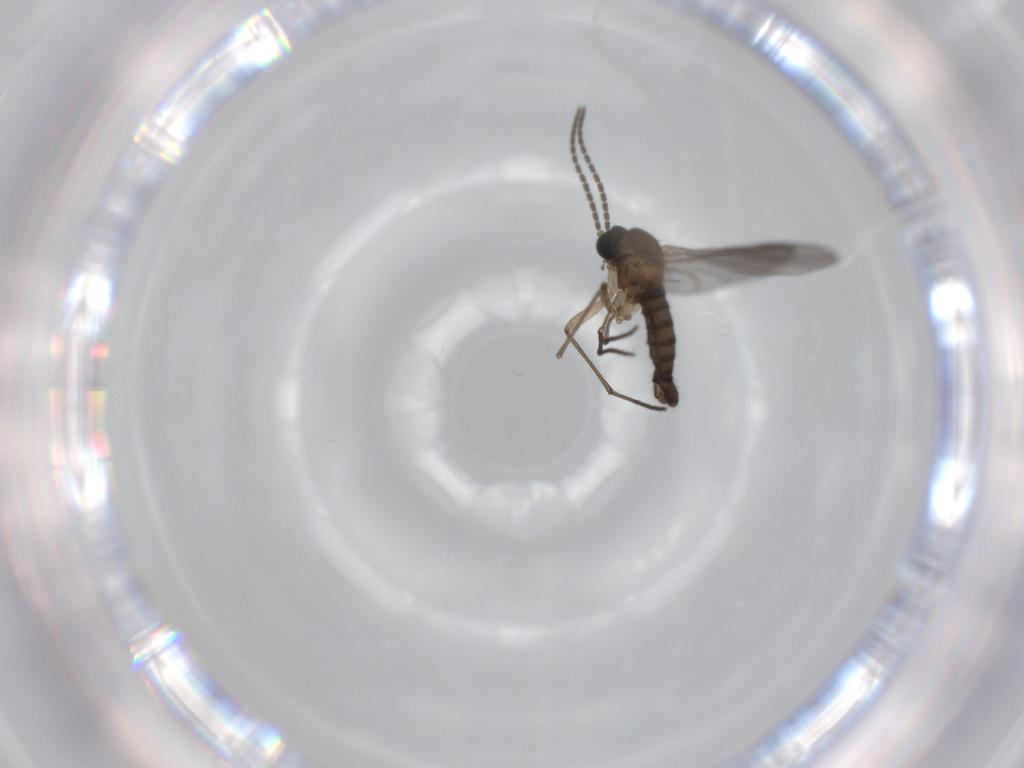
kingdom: Animalia
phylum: Arthropoda
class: Insecta
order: Diptera
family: Sciaridae
